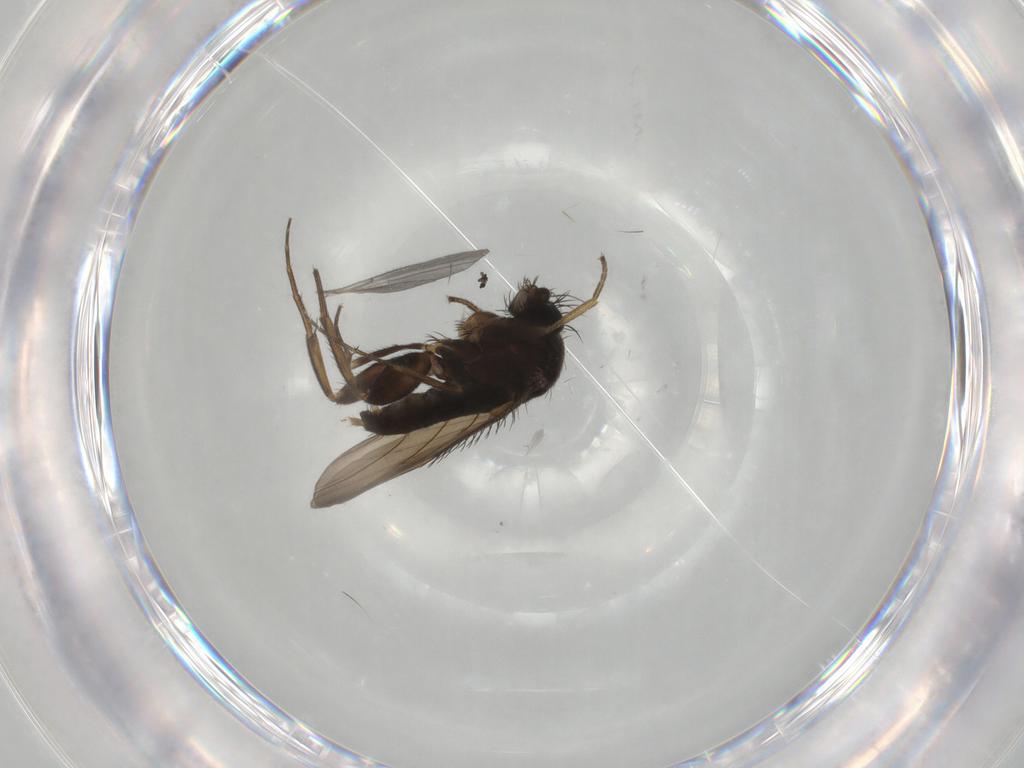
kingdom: Animalia
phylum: Arthropoda
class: Insecta
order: Diptera
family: Phoridae
